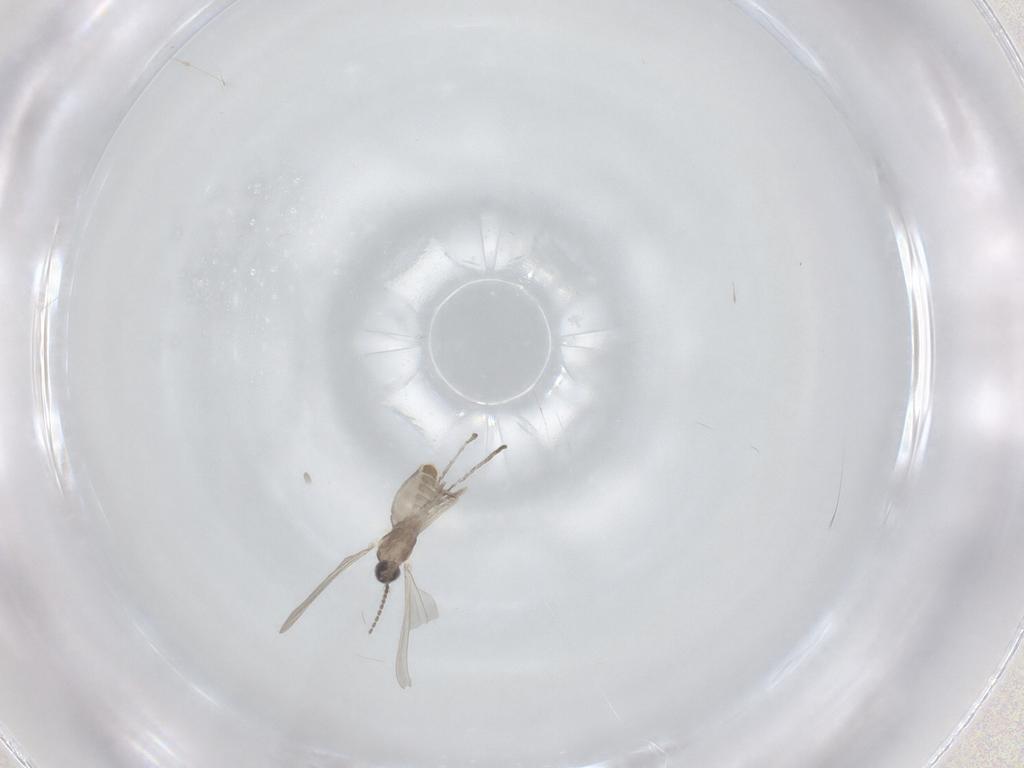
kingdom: Animalia
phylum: Arthropoda
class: Insecta
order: Diptera
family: Cecidomyiidae
